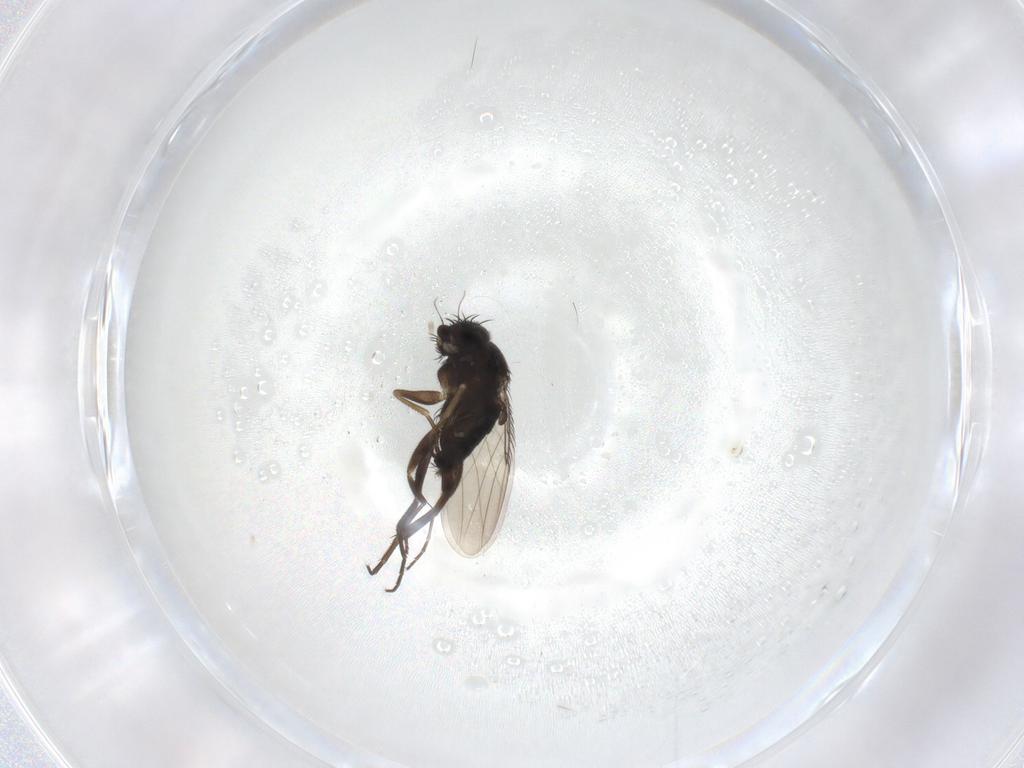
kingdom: Animalia
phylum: Arthropoda
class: Insecta
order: Diptera
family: Phoridae
